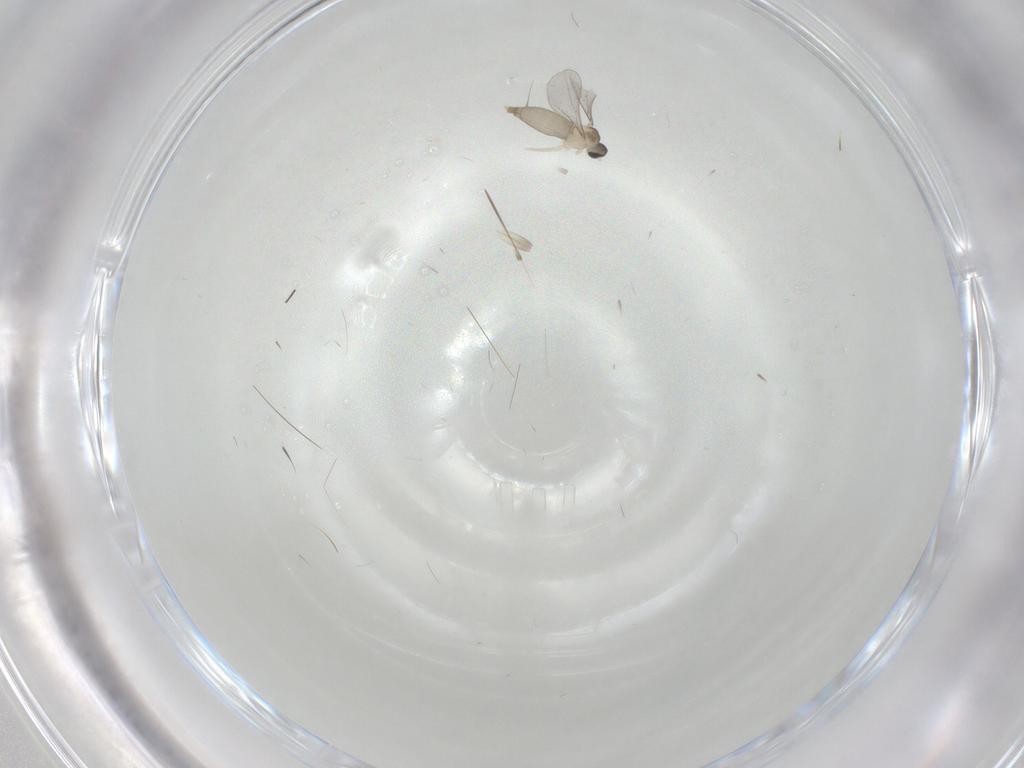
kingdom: Animalia
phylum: Arthropoda
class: Insecta
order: Diptera
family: Cecidomyiidae
